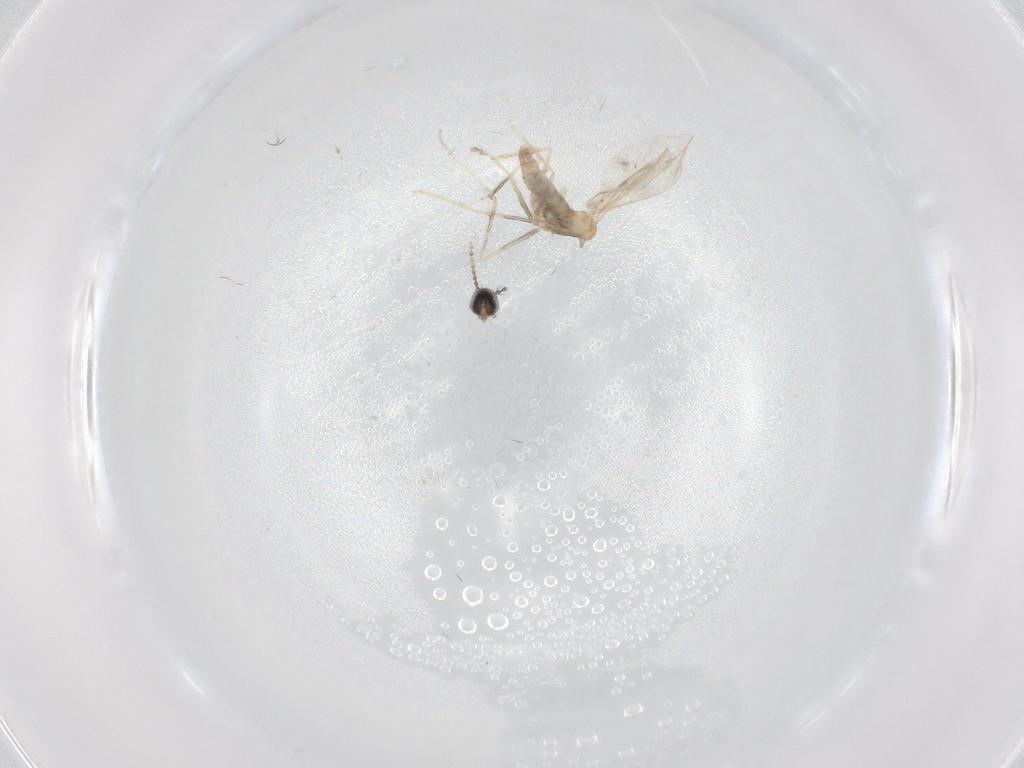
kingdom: Animalia
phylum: Arthropoda
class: Insecta
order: Diptera
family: Cecidomyiidae
